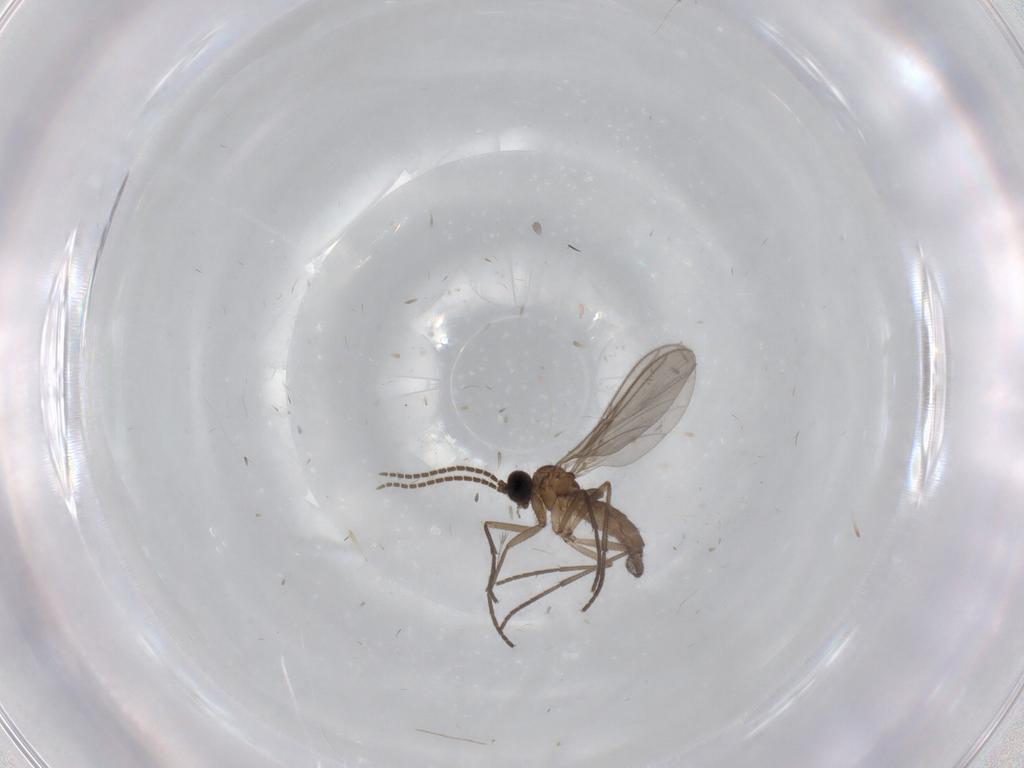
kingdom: Animalia
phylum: Arthropoda
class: Insecta
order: Diptera
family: Sciaridae
